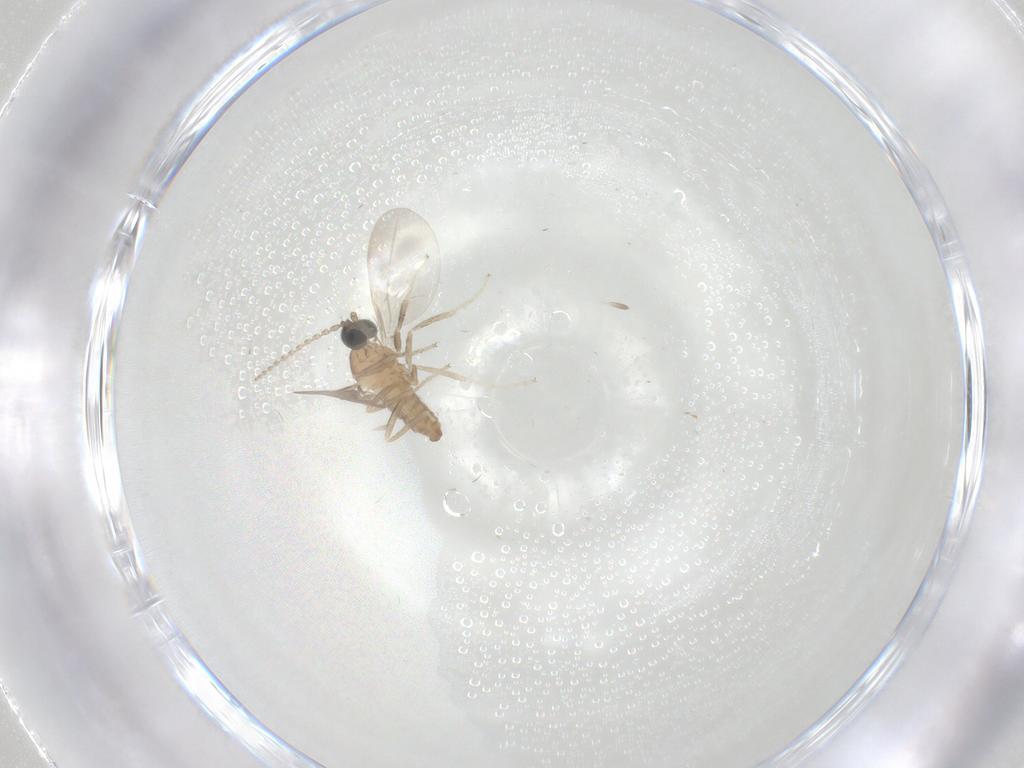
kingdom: Animalia
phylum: Arthropoda
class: Insecta
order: Diptera
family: Cecidomyiidae
